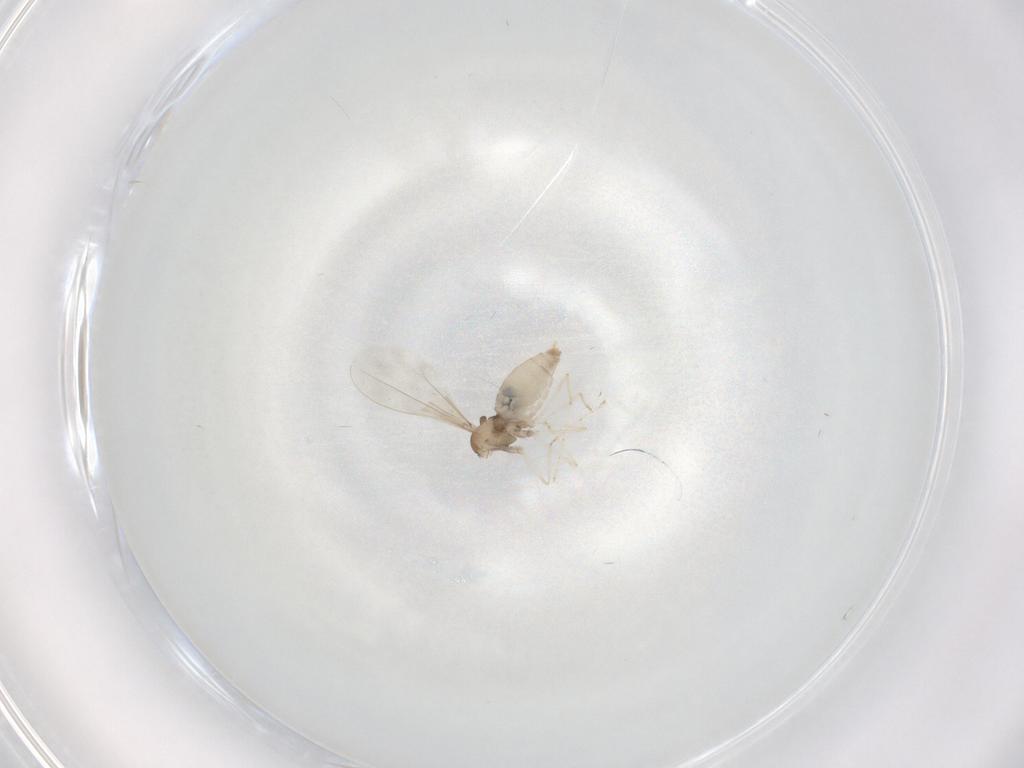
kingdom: Animalia
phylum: Arthropoda
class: Insecta
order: Diptera
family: Cecidomyiidae
